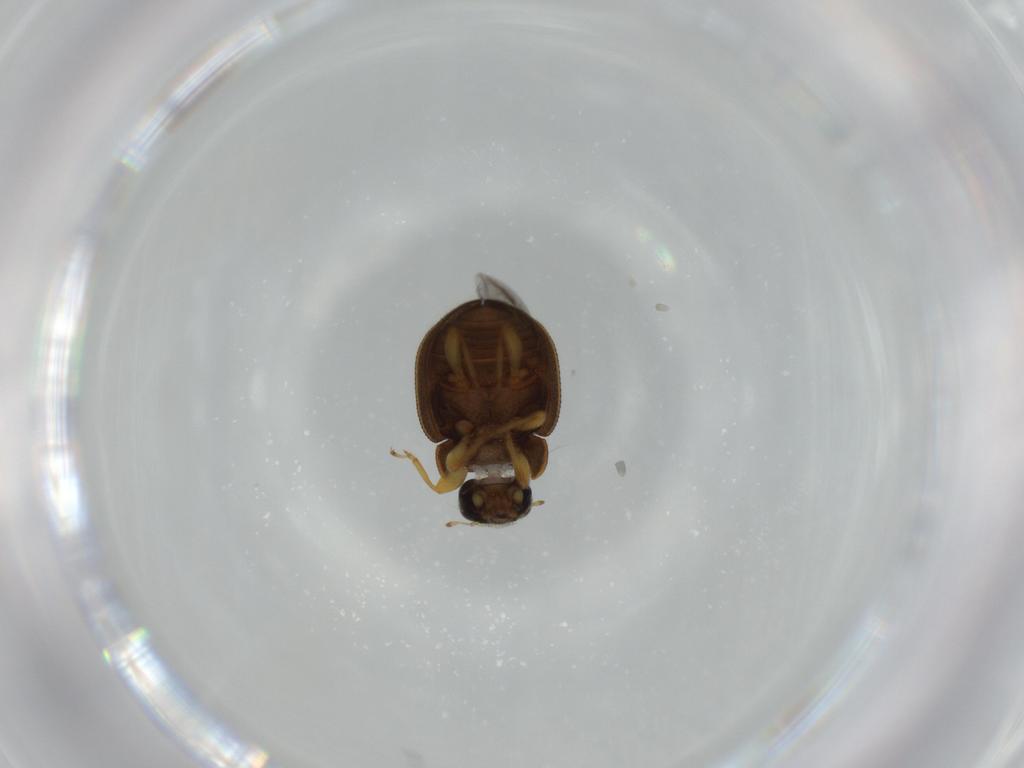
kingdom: Animalia
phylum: Arthropoda
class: Insecta
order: Coleoptera
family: Coccinellidae
